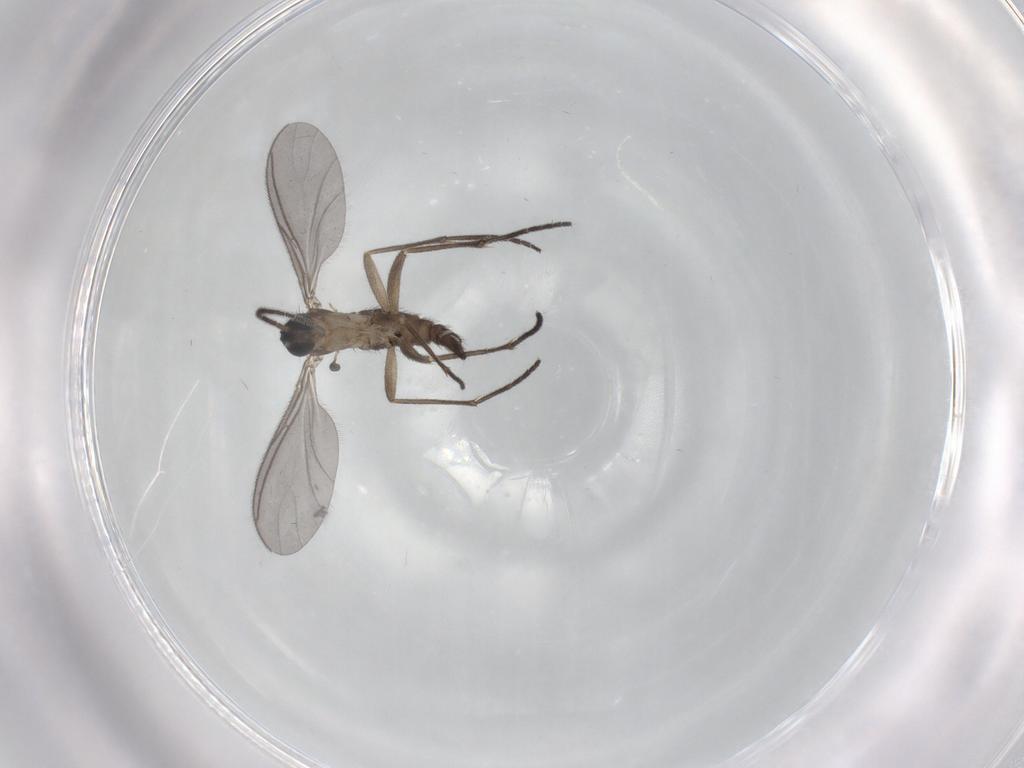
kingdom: Animalia
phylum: Arthropoda
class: Insecta
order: Diptera
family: Sciaridae
